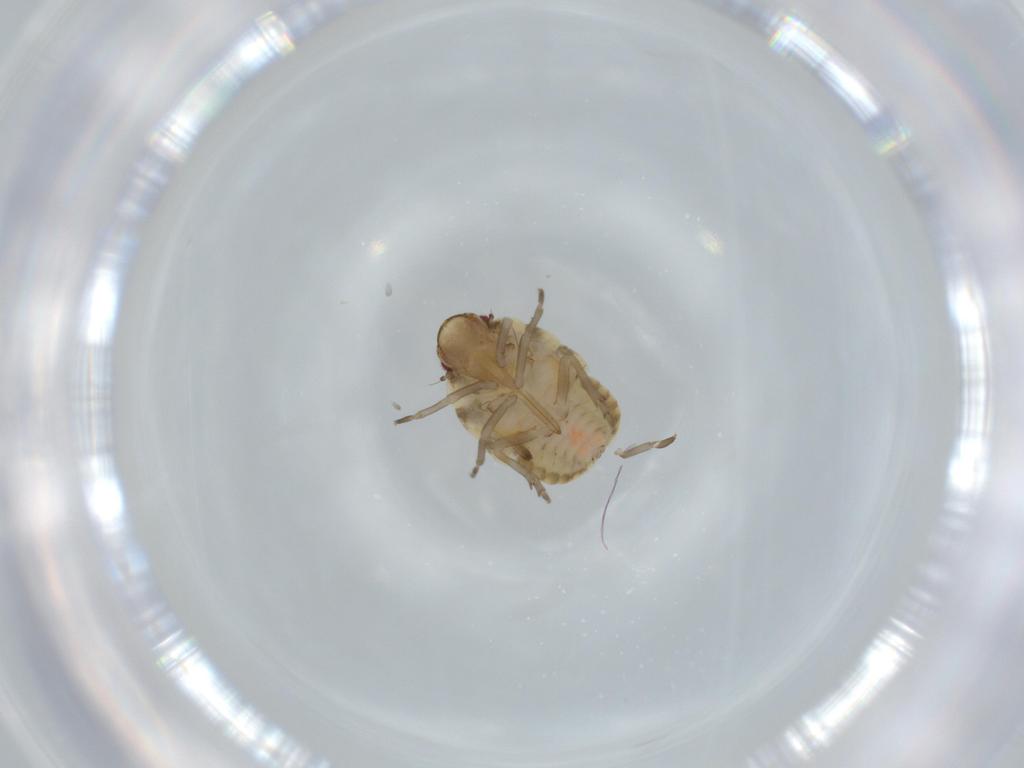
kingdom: Animalia
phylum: Arthropoda
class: Insecta
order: Hemiptera
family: Flatidae
